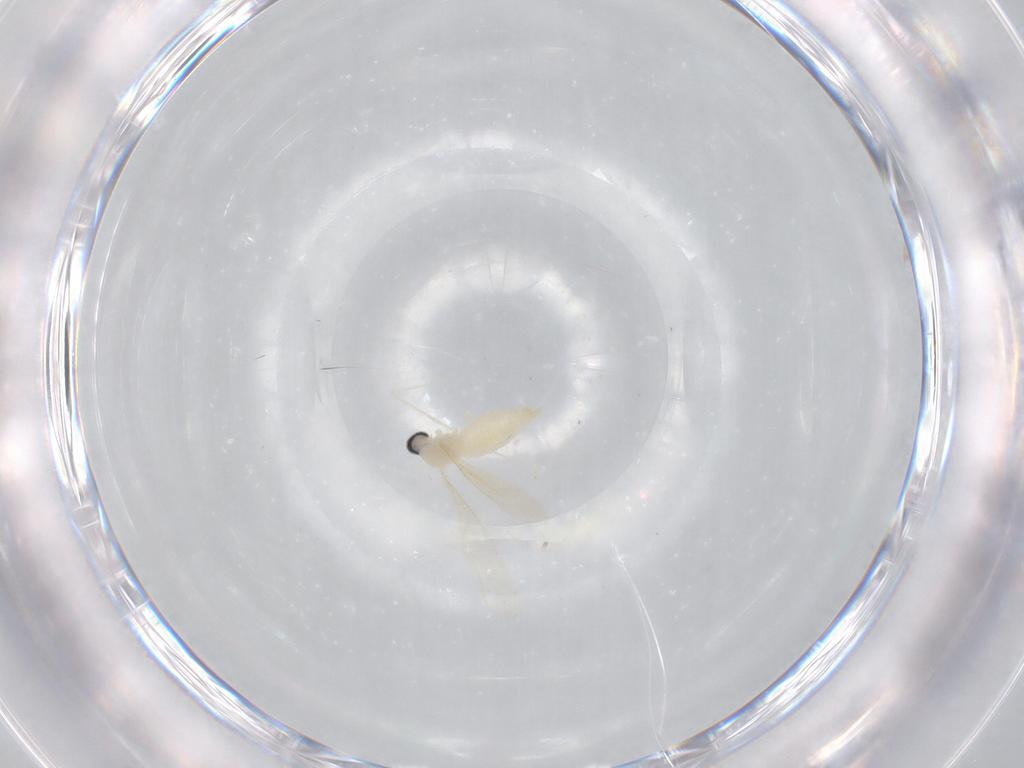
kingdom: Animalia
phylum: Arthropoda
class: Insecta
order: Diptera
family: Cecidomyiidae
